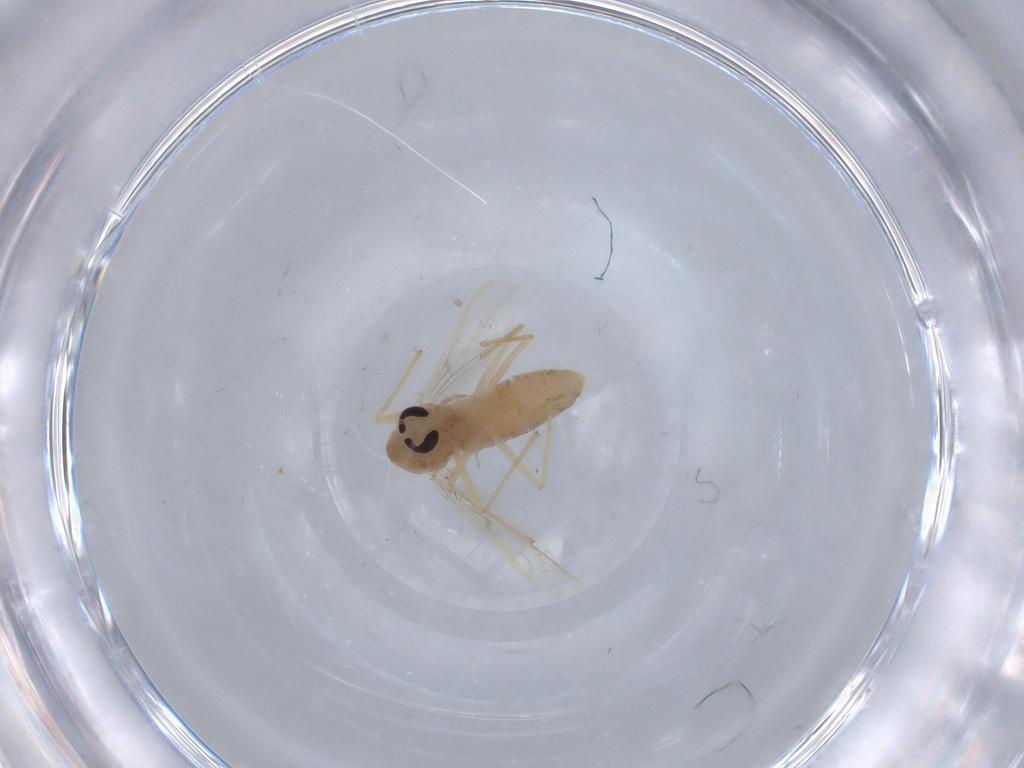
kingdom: Animalia
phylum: Arthropoda
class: Insecta
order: Diptera
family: Chironomidae
